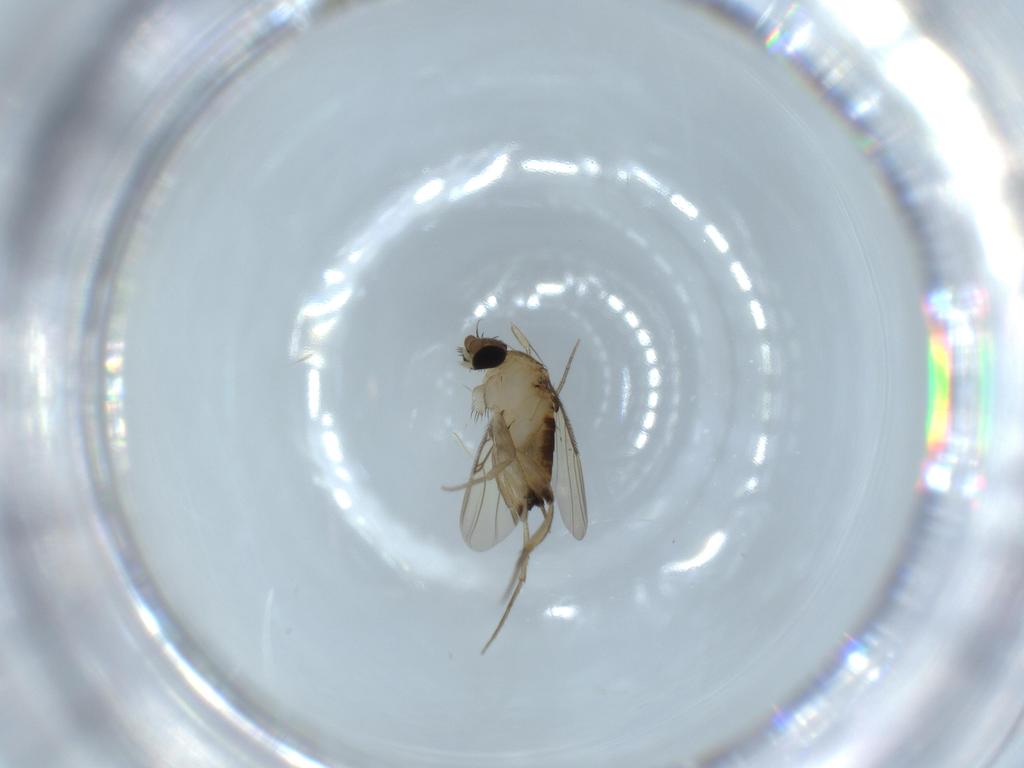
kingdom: Animalia
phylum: Arthropoda
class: Insecta
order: Diptera
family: Phoridae
